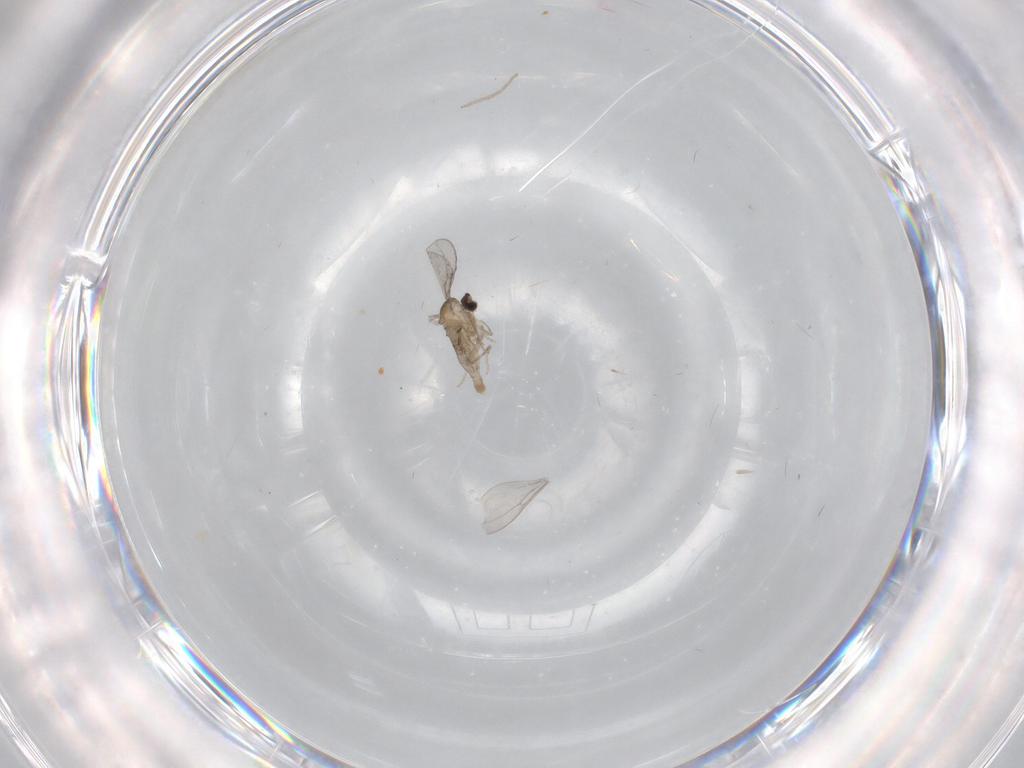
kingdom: Animalia
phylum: Arthropoda
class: Insecta
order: Diptera
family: Cecidomyiidae
